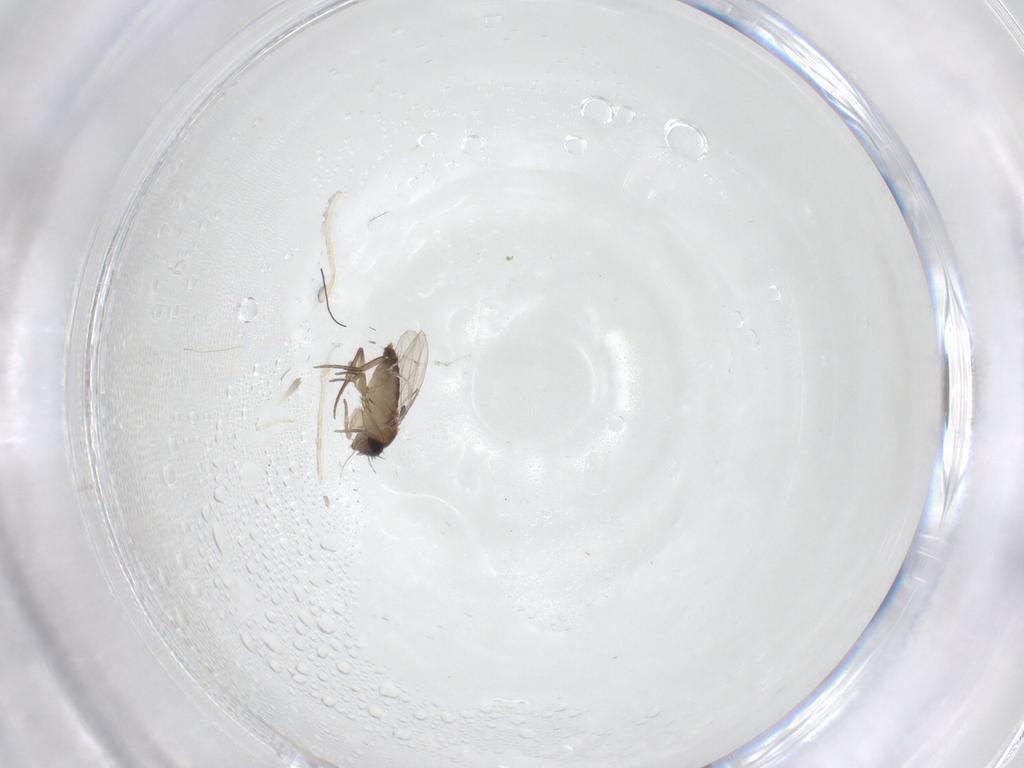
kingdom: Animalia
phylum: Arthropoda
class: Insecta
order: Diptera
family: Phoridae
